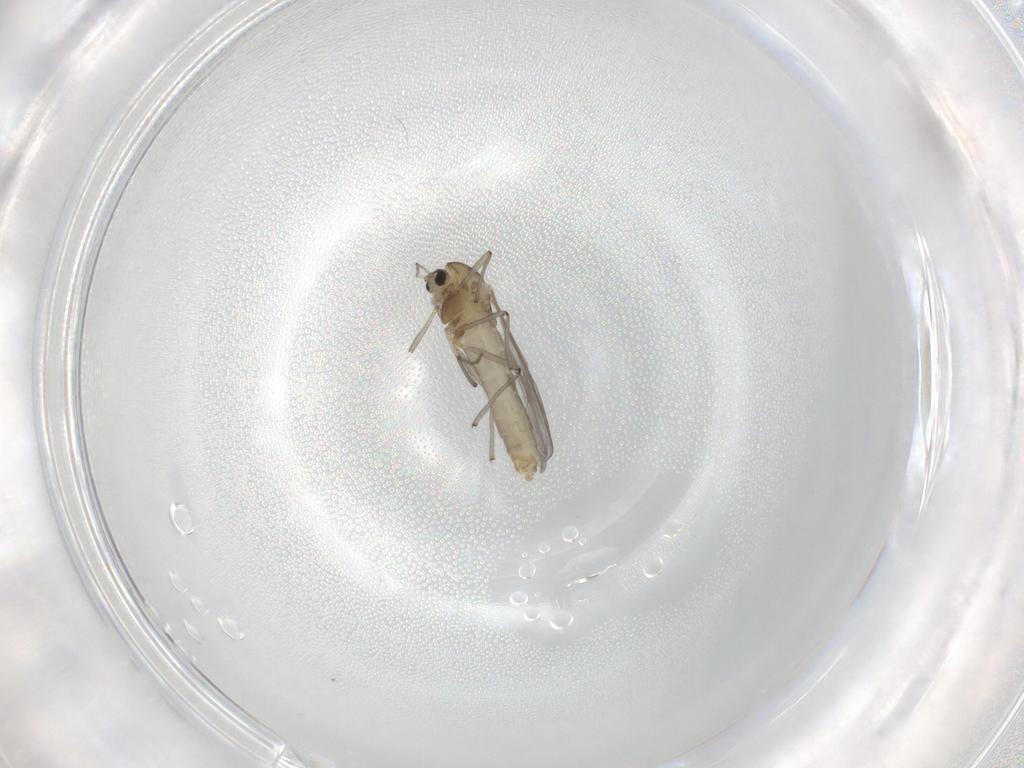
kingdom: Animalia
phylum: Arthropoda
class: Insecta
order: Diptera
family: Chironomidae
